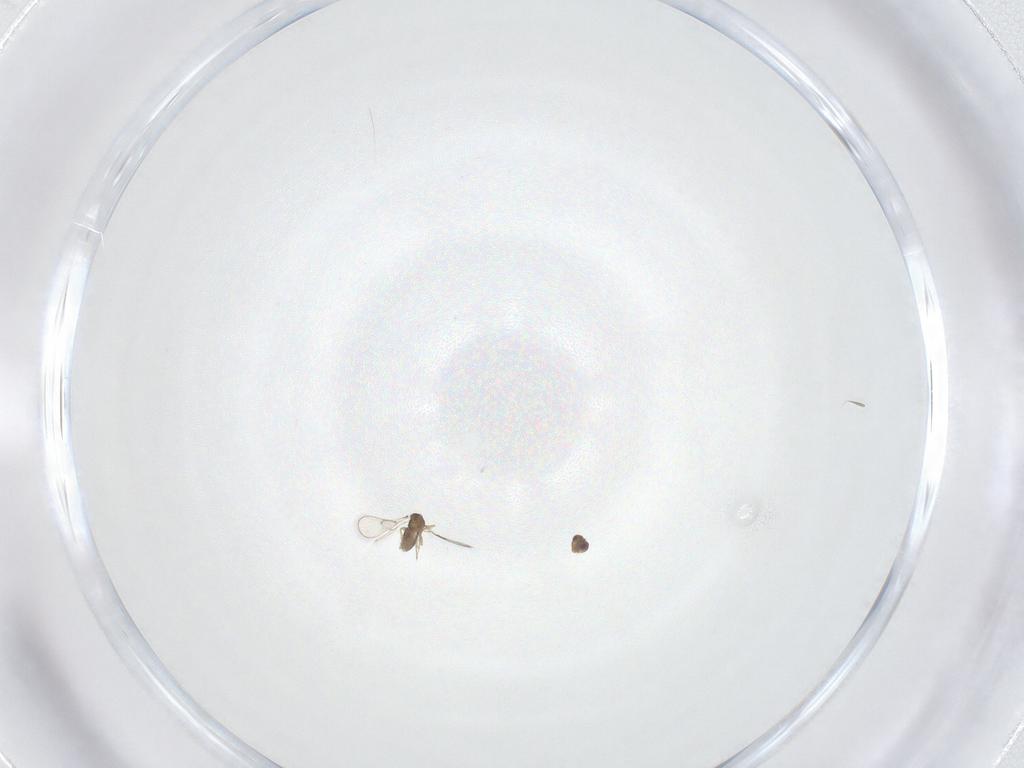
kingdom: Animalia
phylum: Arthropoda
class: Insecta
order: Hymenoptera
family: Trichogrammatidae
